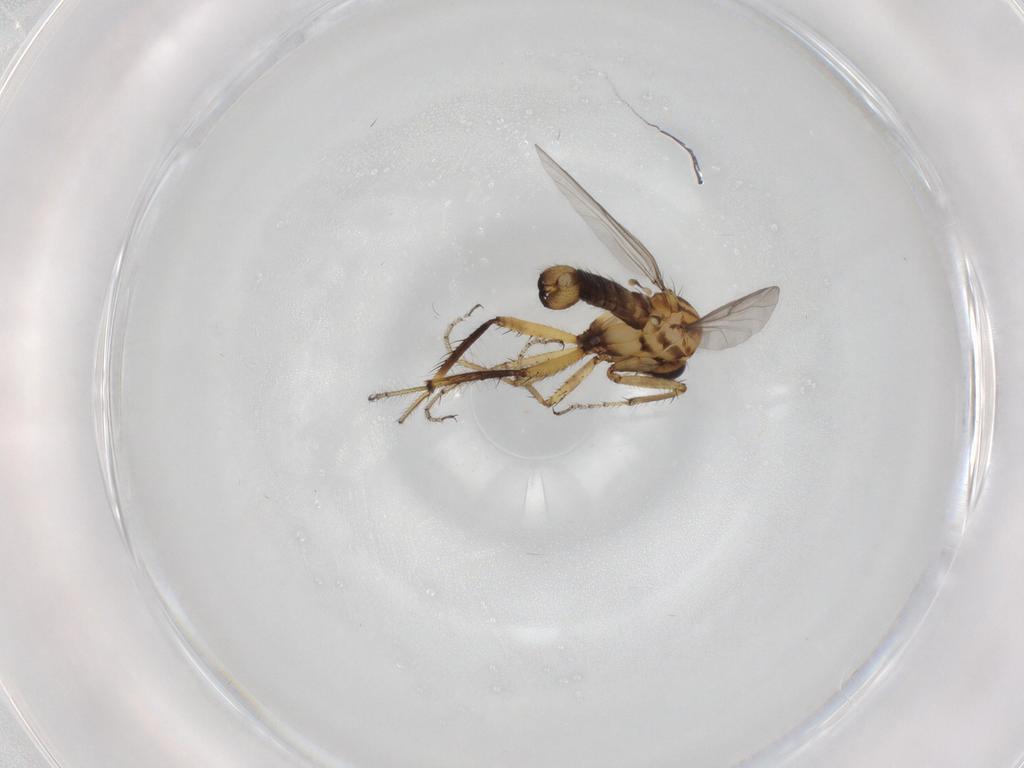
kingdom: Animalia
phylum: Arthropoda
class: Insecta
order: Diptera
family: Ceratopogonidae
